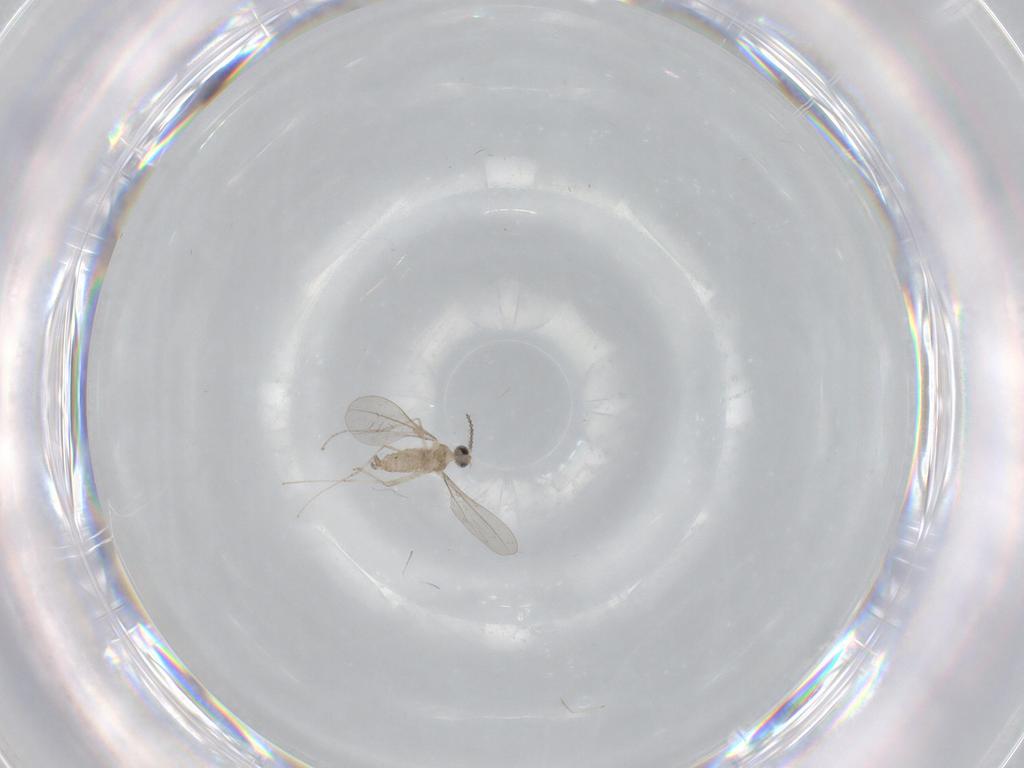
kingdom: Animalia
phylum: Arthropoda
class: Insecta
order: Diptera
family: Cecidomyiidae
